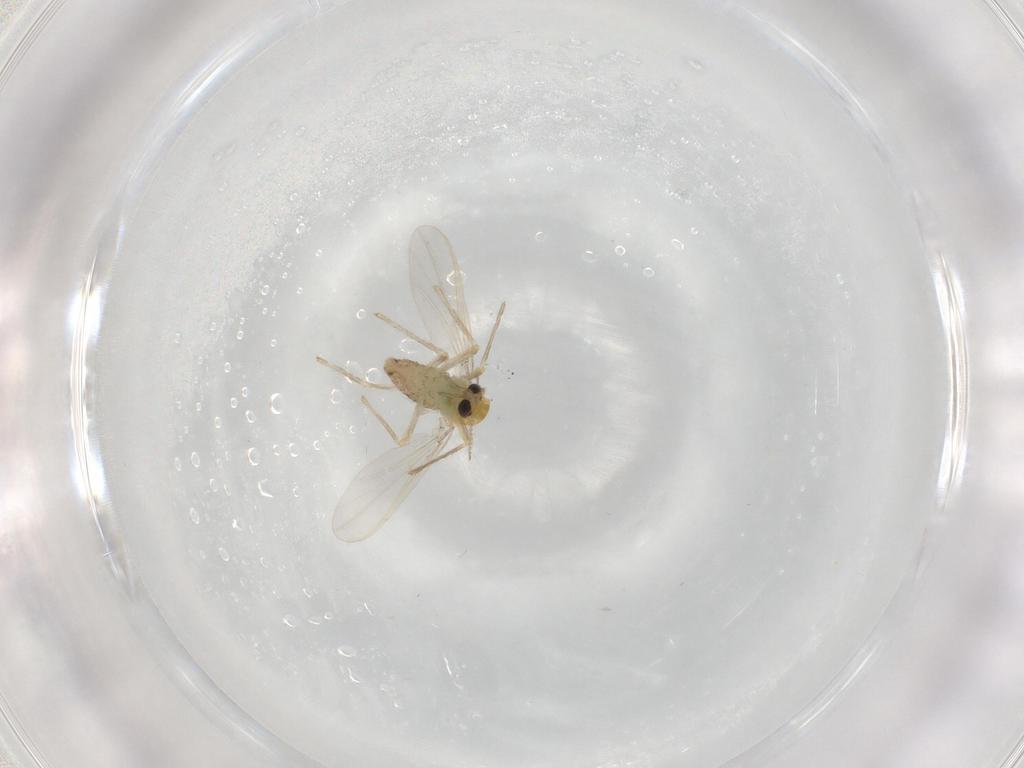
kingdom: Animalia
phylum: Arthropoda
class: Insecta
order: Diptera
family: Chironomidae
